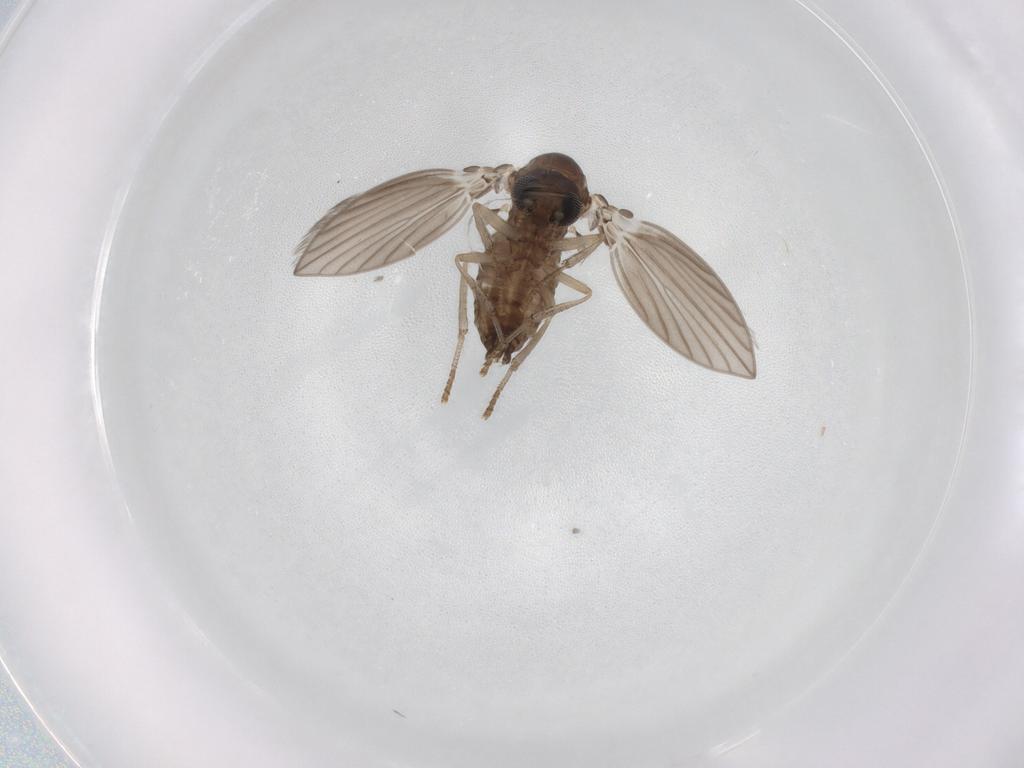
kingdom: Animalia
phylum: Arthropoda
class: Insecta
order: Diptera
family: Psychodidae
